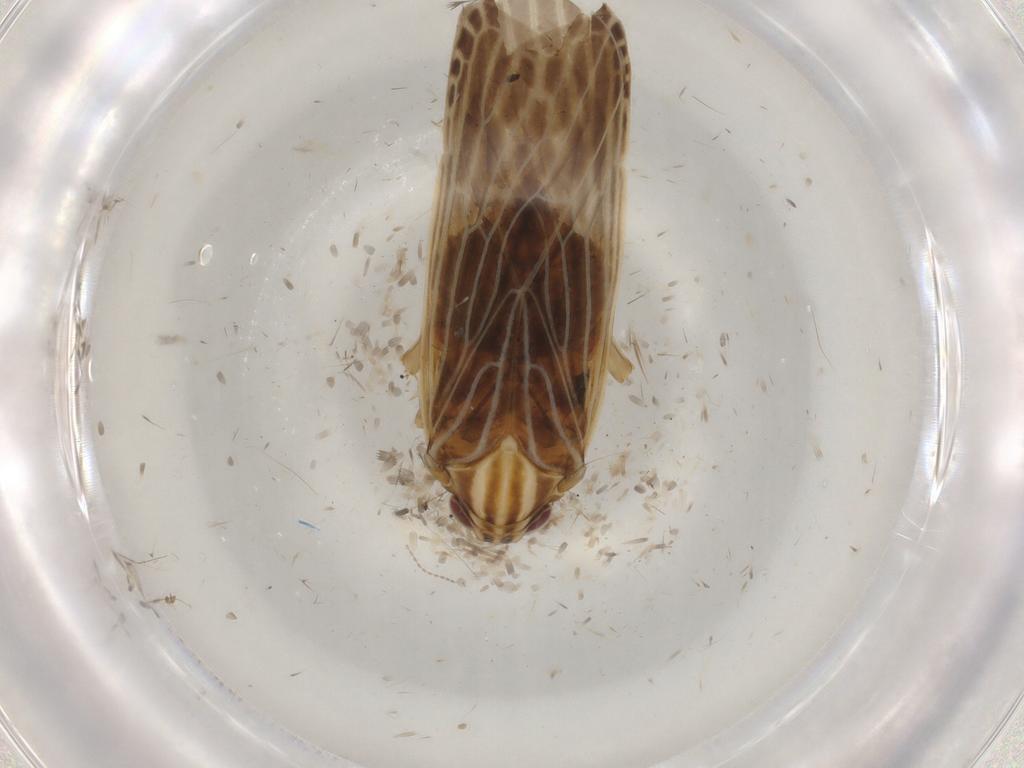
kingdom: Animalia
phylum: Arthropoda
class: Insecta
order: Hemiptera
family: Cicadellidae
